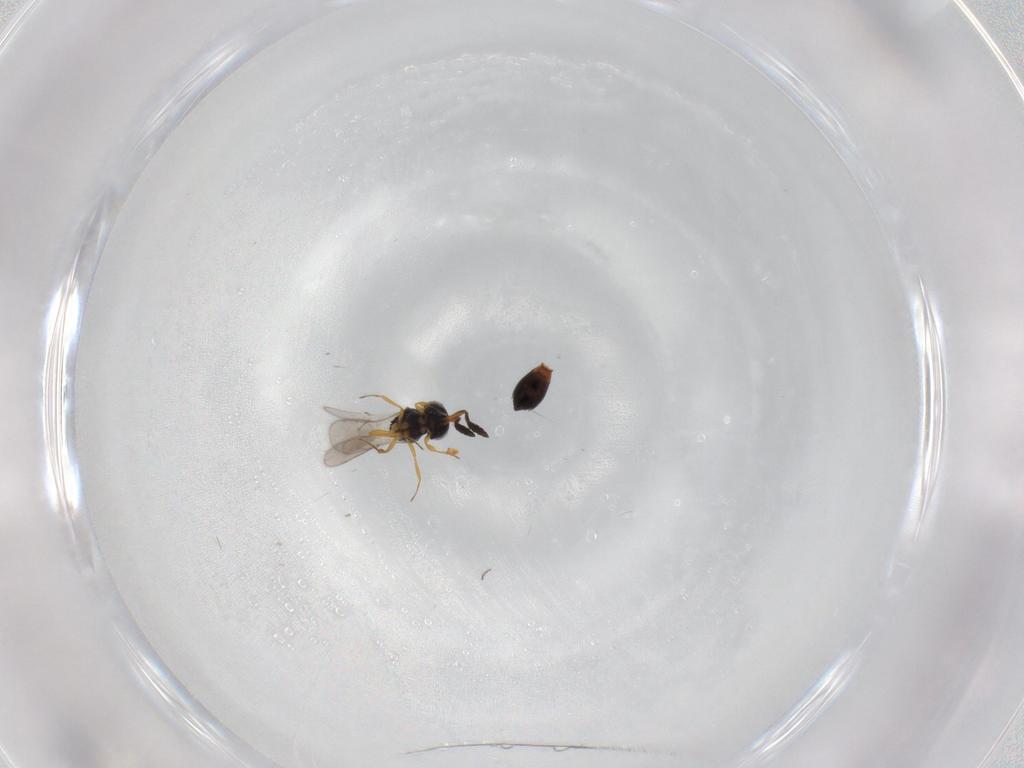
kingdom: Animalia
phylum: Arthropoda
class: Insecta
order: Hymenoptera
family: Scelionidae
